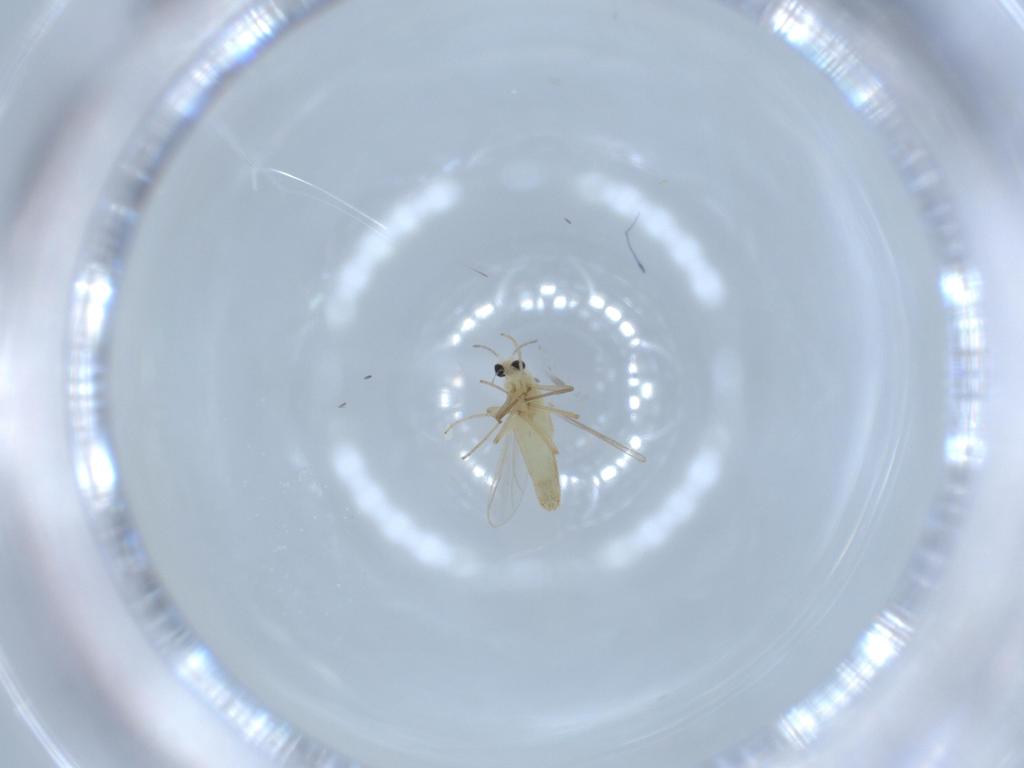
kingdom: Animalia
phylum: Arthropoda
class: Insecta
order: Diptera
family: Chironomidae
